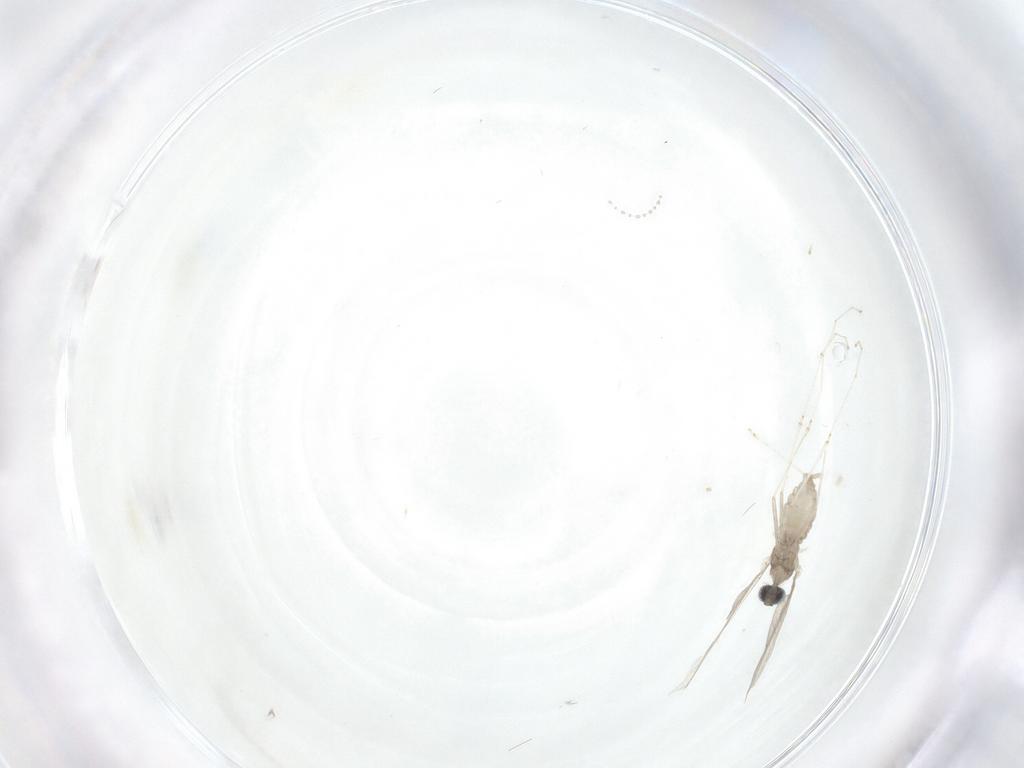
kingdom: Animalia
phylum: Arthropoda
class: Insecta
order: Diptera
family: Cecidomyiidae
